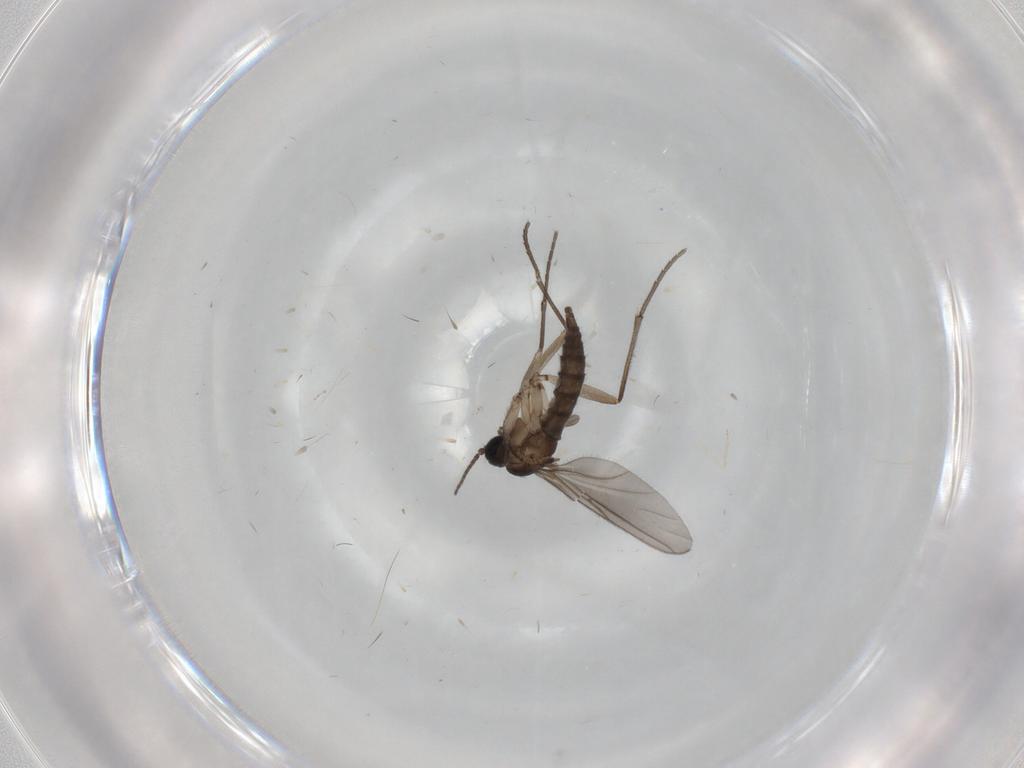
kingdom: Animalia
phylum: Arthropoda
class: Insecta
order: Diptera
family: Sciaridae
